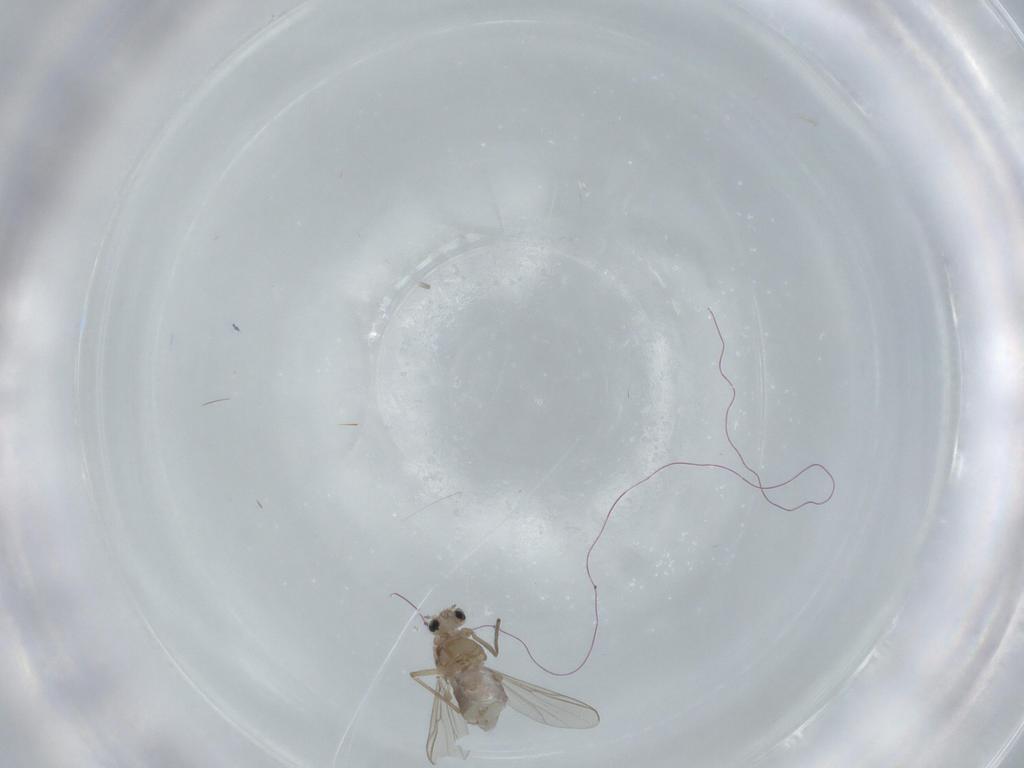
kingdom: Animalia
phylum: Arthropoda
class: Insecta
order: Diptera
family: Chironomidae
